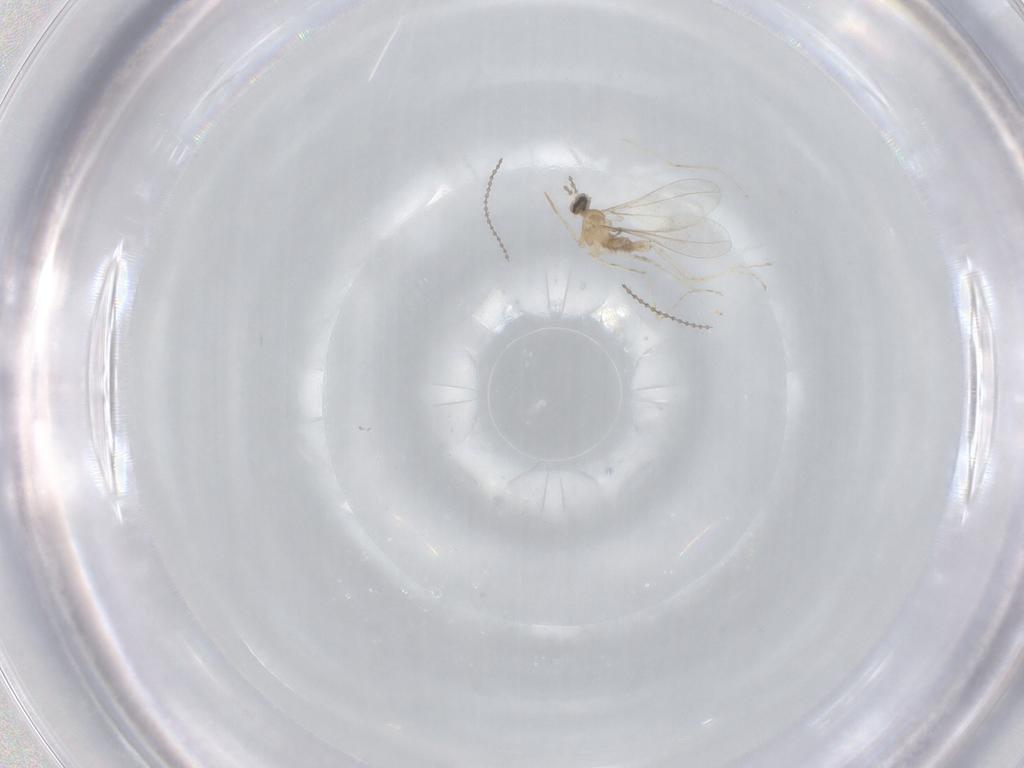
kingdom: Animalia
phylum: Arthropoda
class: Insecta
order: Diptera
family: Cecidomyiidae
